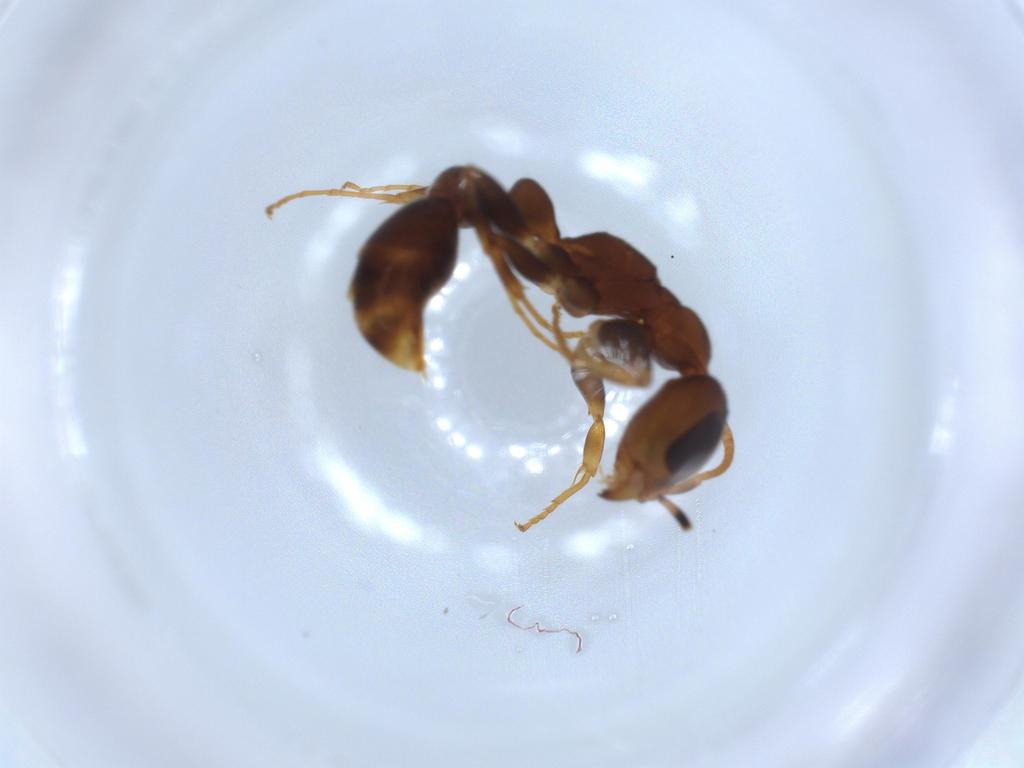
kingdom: Animalia
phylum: Arthropoda
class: Insecta
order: Hymenoptera
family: Formicidae
